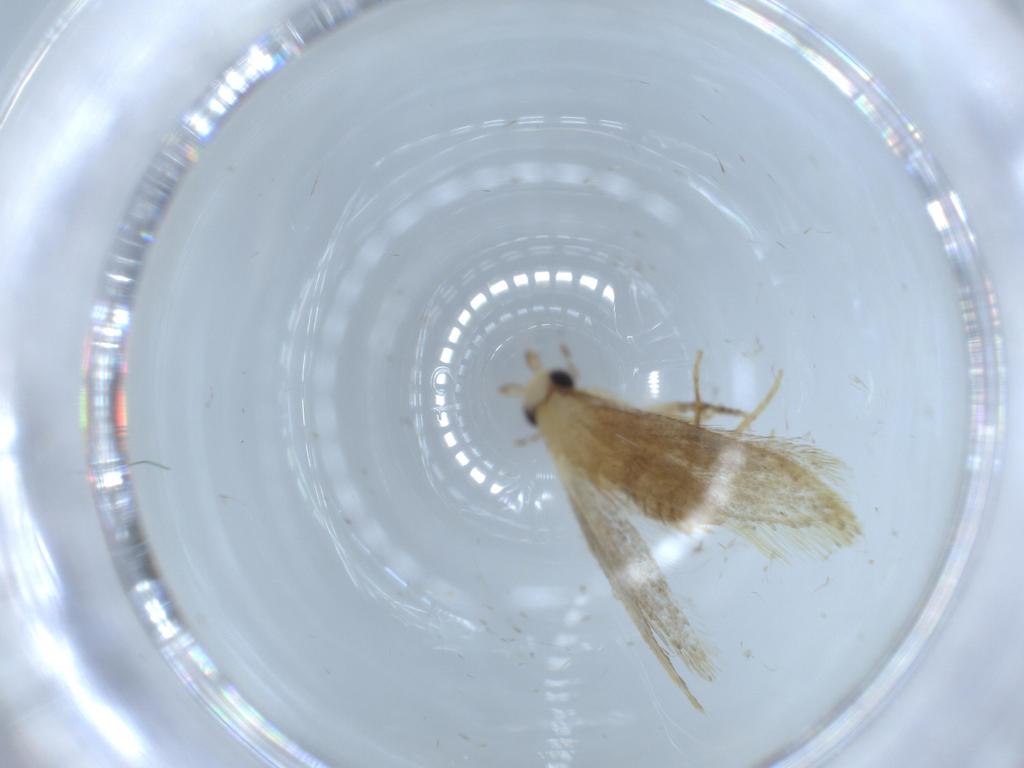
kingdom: Animalia
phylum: Arthropoda
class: Insecta
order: Lepidoptera
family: Tineidae
